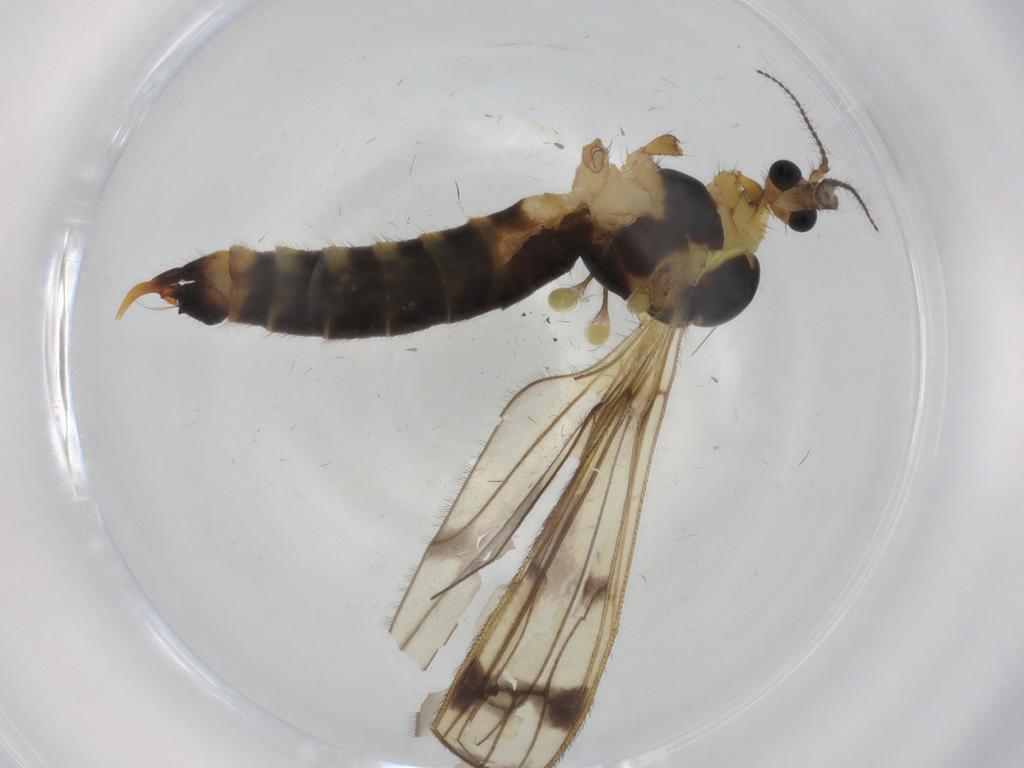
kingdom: Animalia
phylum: Arthropoda
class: Insecta
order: Diptera
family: Limoniidae
